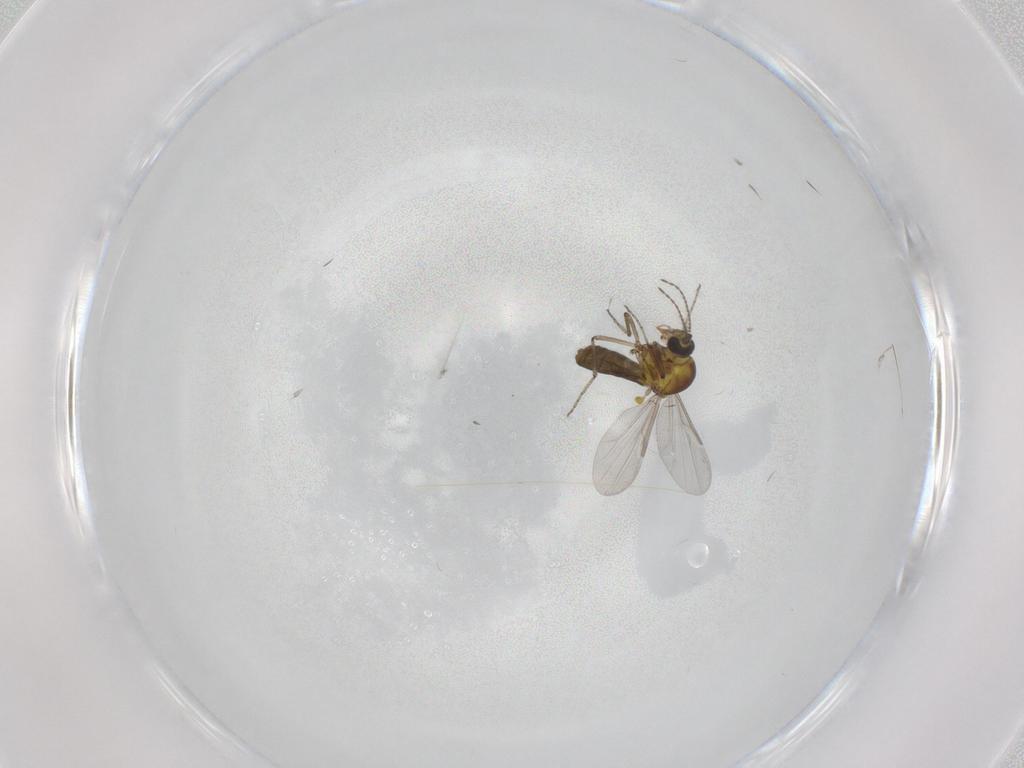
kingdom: Animalia
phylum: Arthropoda
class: Insecta
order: Diptera
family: Ceratopogonidae
